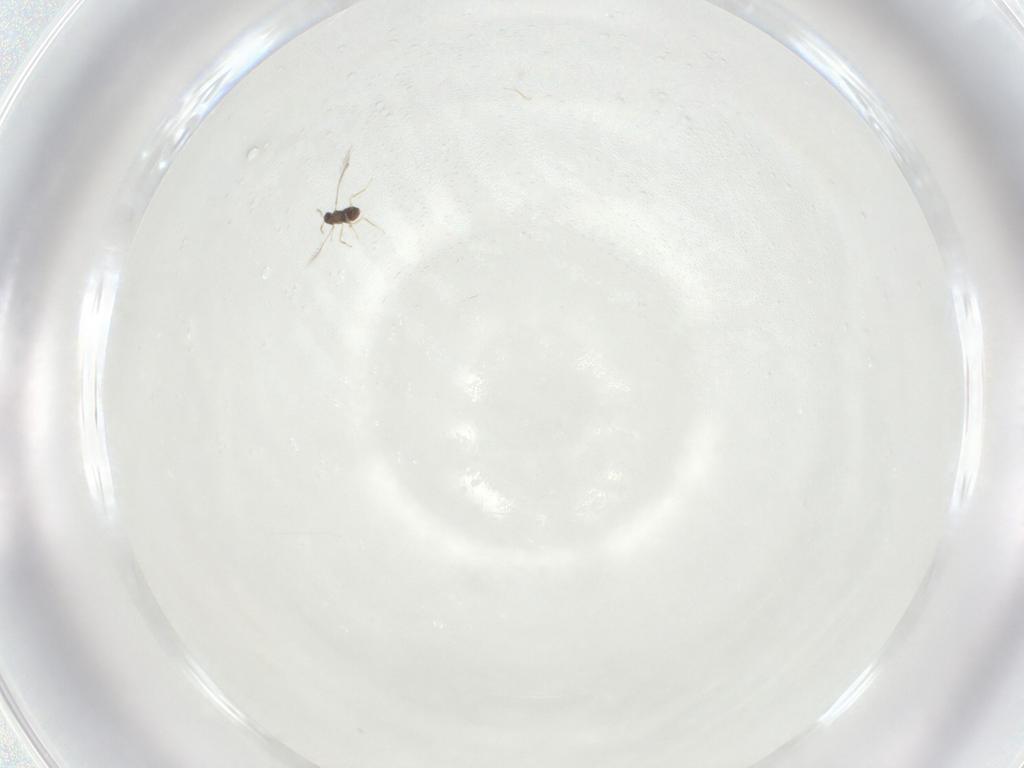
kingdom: Animalia
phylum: Arthropoda
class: Insecta
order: Hymenoptera
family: Mymaridae
